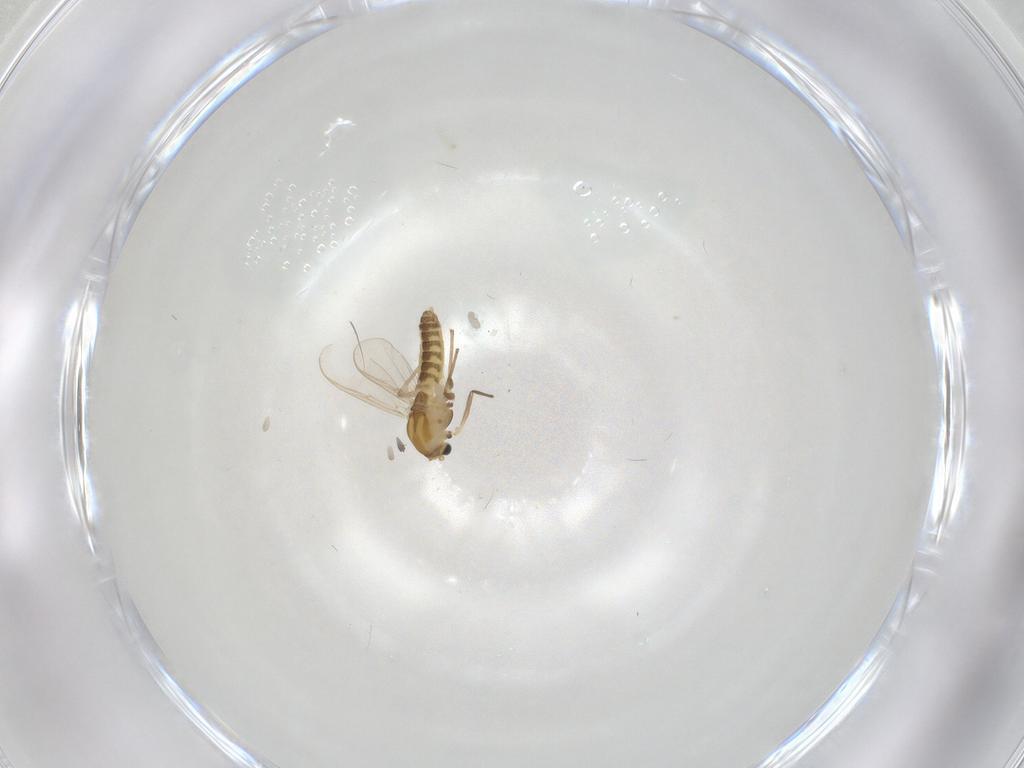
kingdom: Animalia
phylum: Arthropoda
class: Insecta
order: Diptera
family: Chironomidae
